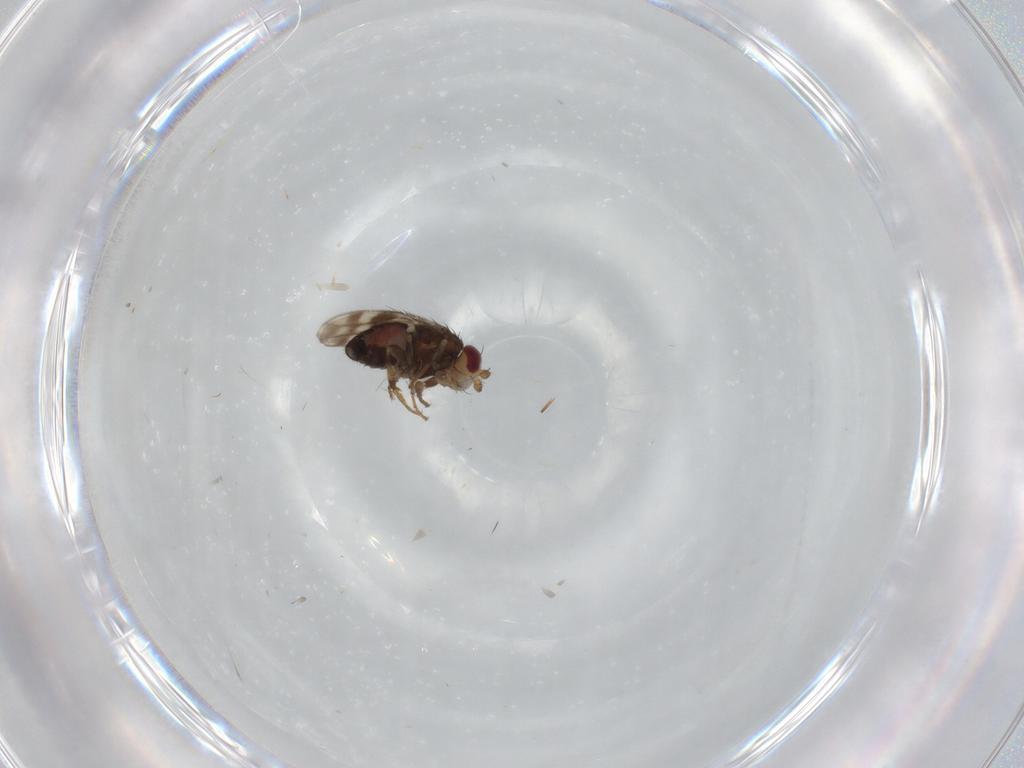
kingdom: Animalia
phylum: Arthropoda
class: Insecta
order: Diptera
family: Sphaeroceridae
